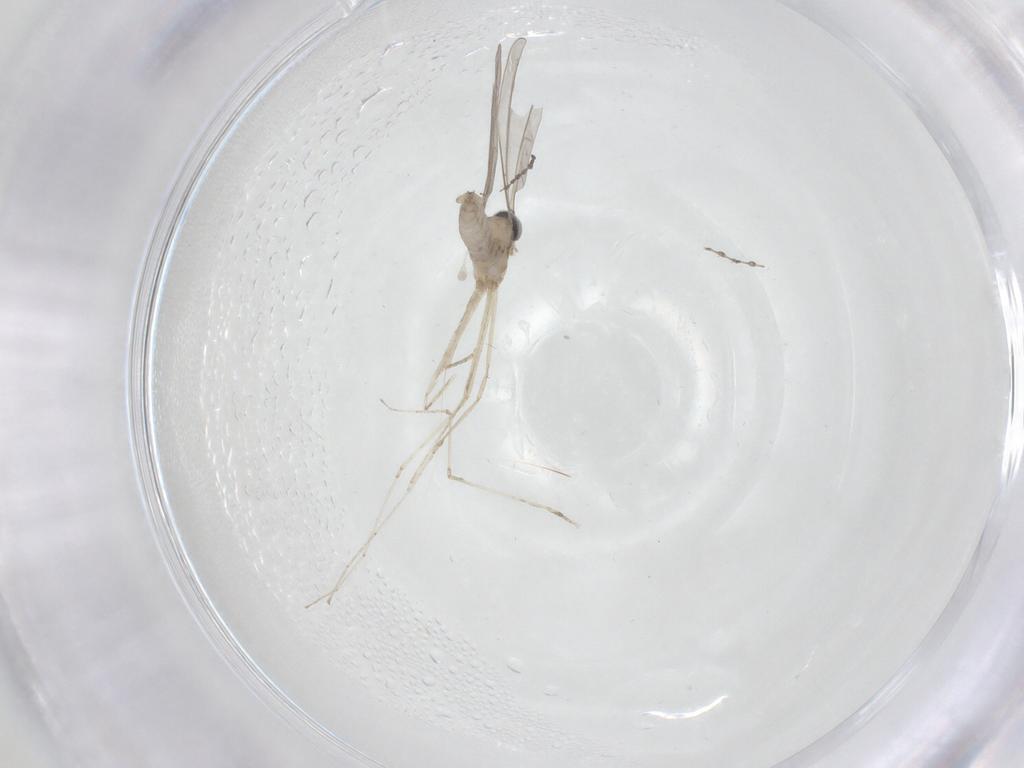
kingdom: Animalia
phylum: Arthropoda
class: Insecta
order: Diptera
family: Cecidomyiidae
